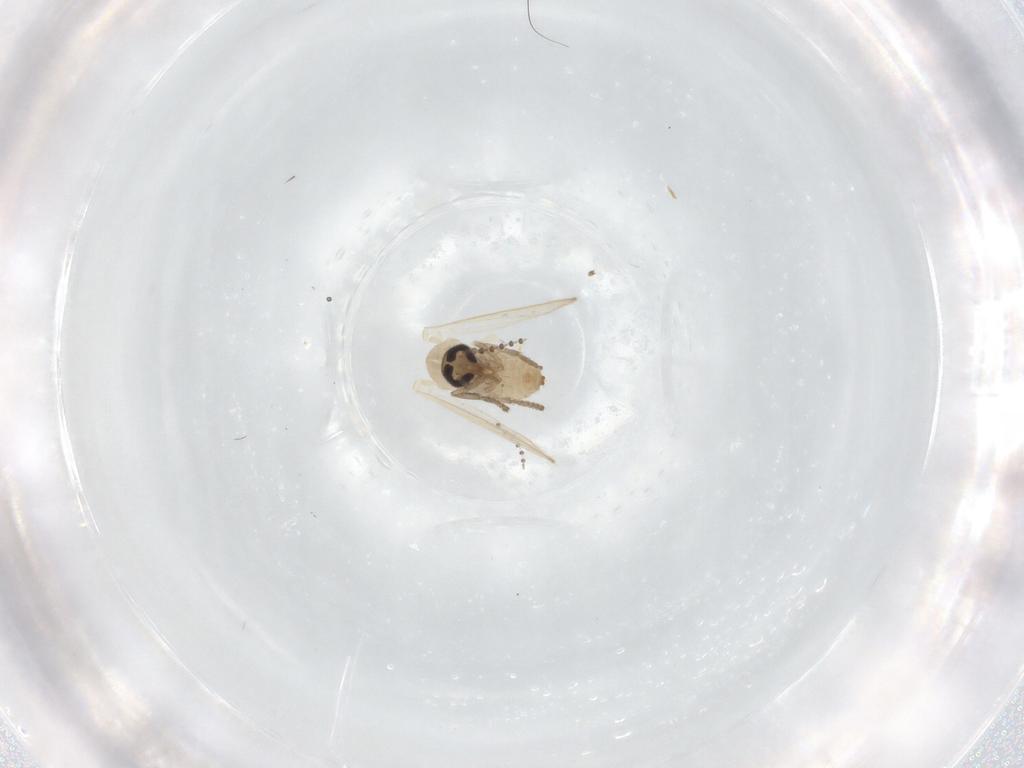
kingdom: Animalia
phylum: Arthropoda
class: Insecta
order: Diptera
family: Psychodidae
